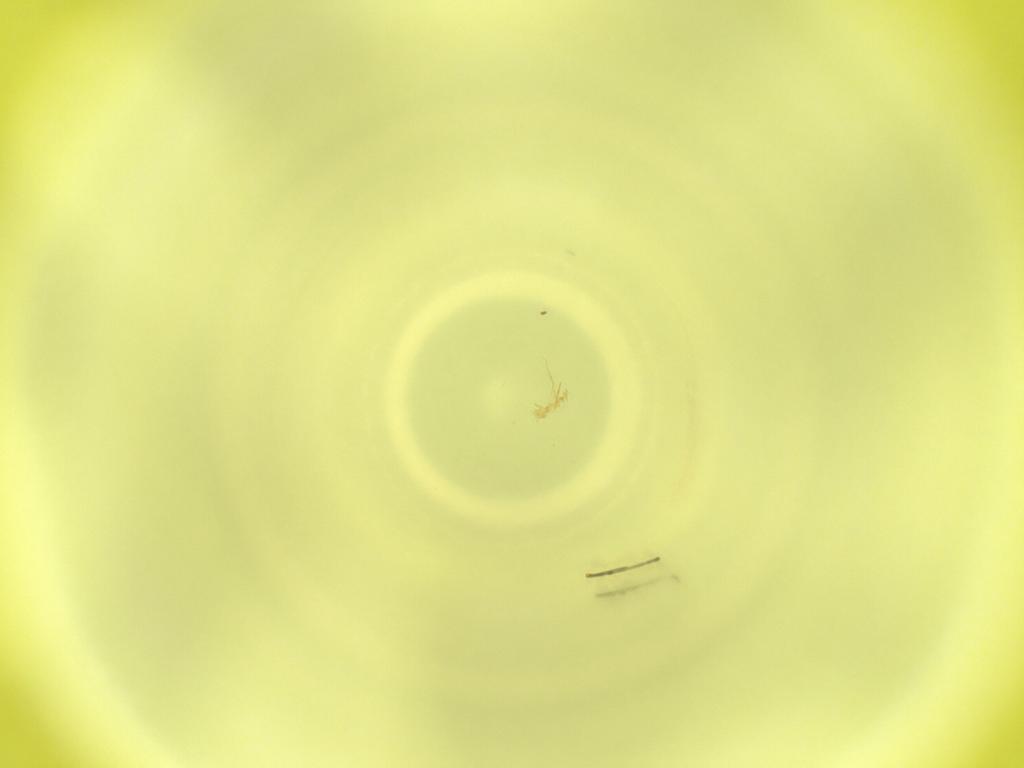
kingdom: Animalia
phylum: Arthropoda
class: Insecta
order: Diptera
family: Cecidomyiidae
